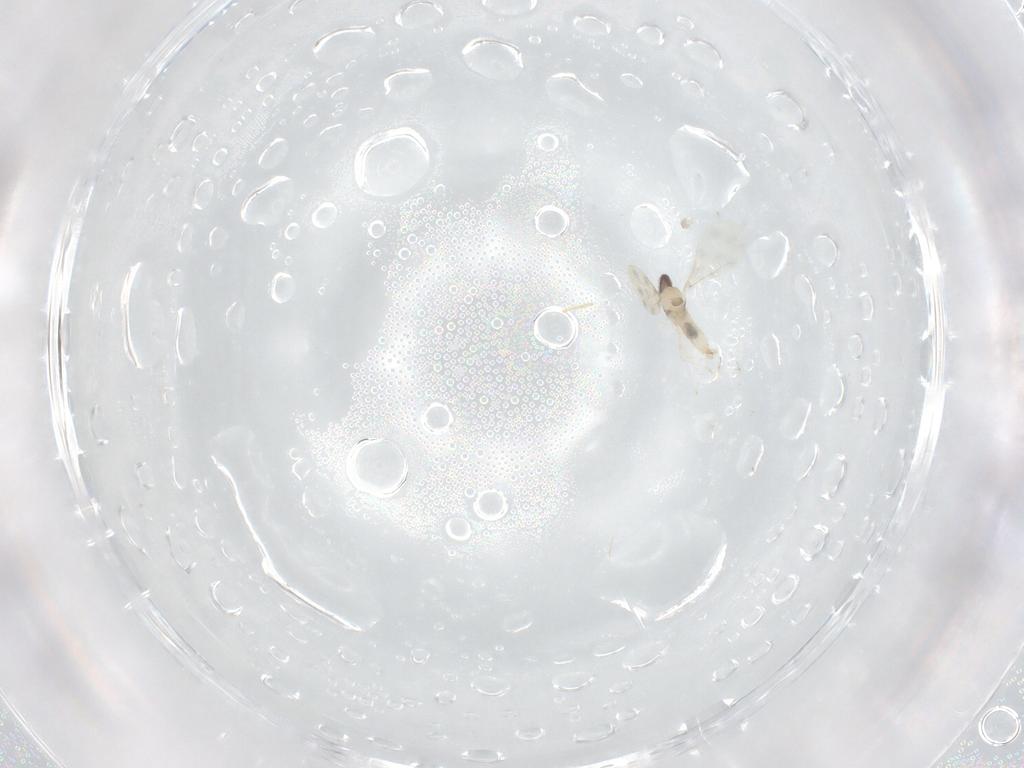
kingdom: Animalia
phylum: Arthropoda
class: Insecta
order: Diptera
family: Cecidomyiidae
